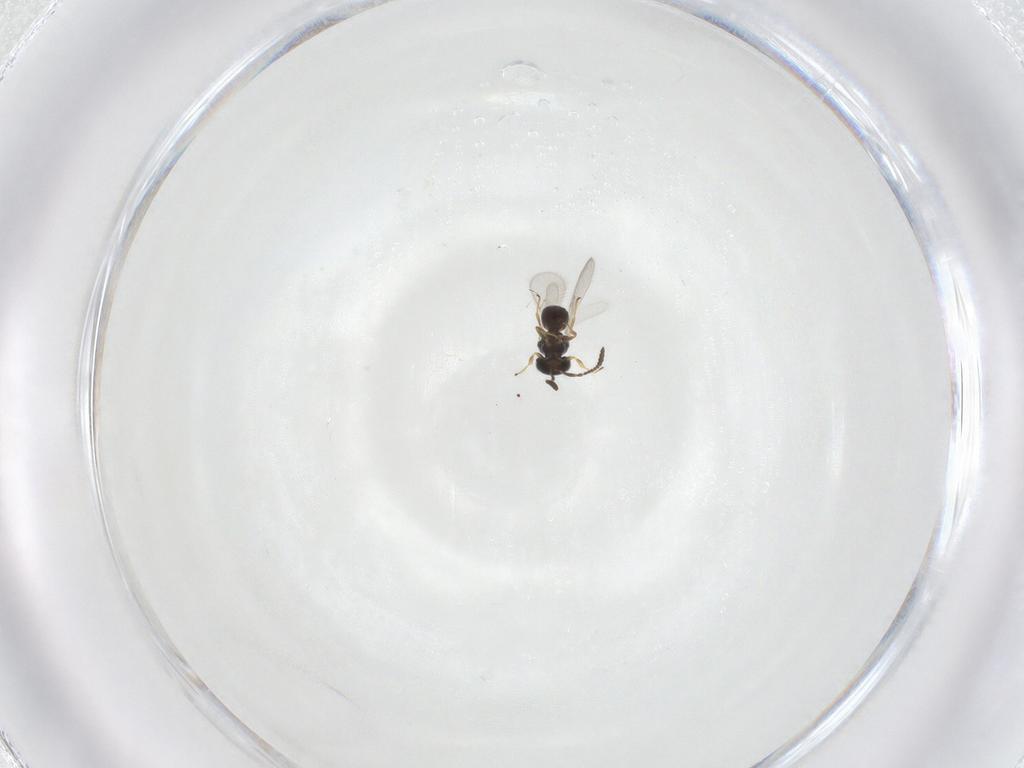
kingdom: Animalia
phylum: Arthropoda
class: Insecta
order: Hymenoptera
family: Scelionidae
